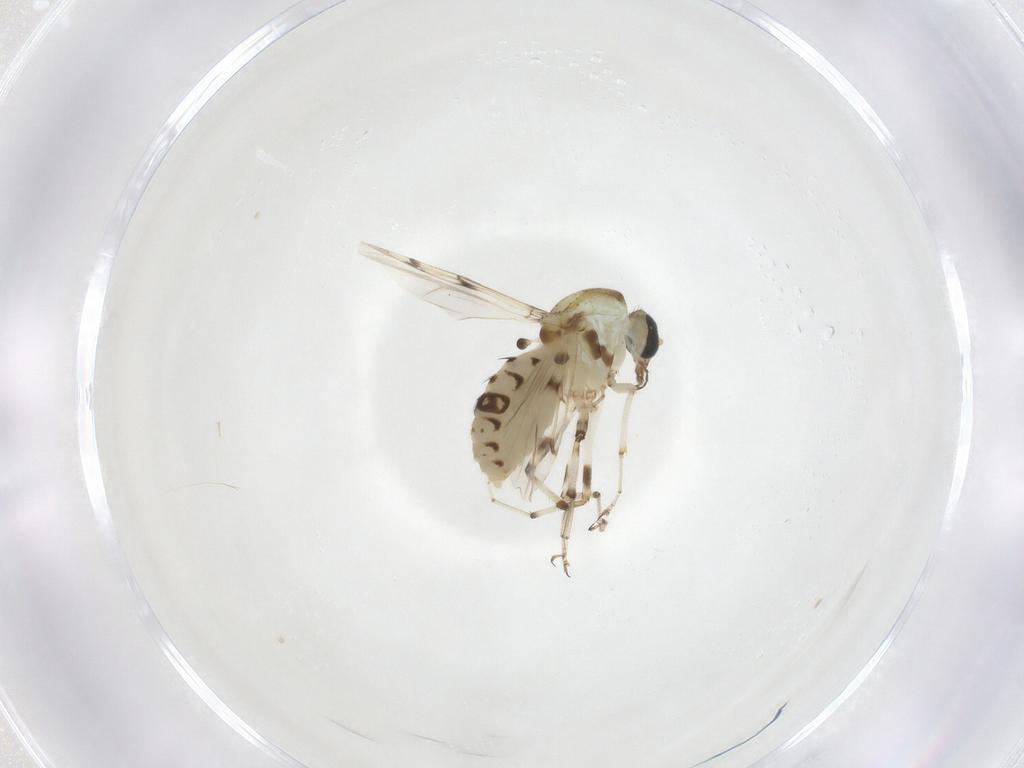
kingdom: Animalia
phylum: Arthropoda
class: Insecta
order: Diptera
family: Ceratopogonidae
